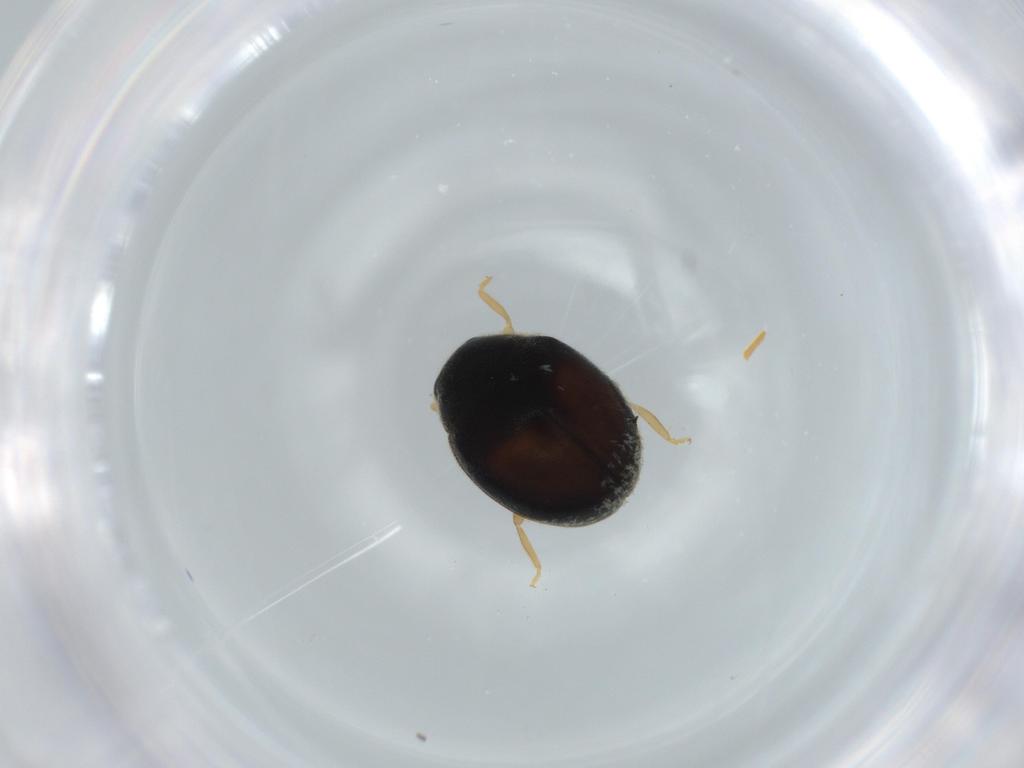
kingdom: Animalia
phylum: Arthropoda
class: Insecta
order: Coleoptera
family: Coccinellidae
